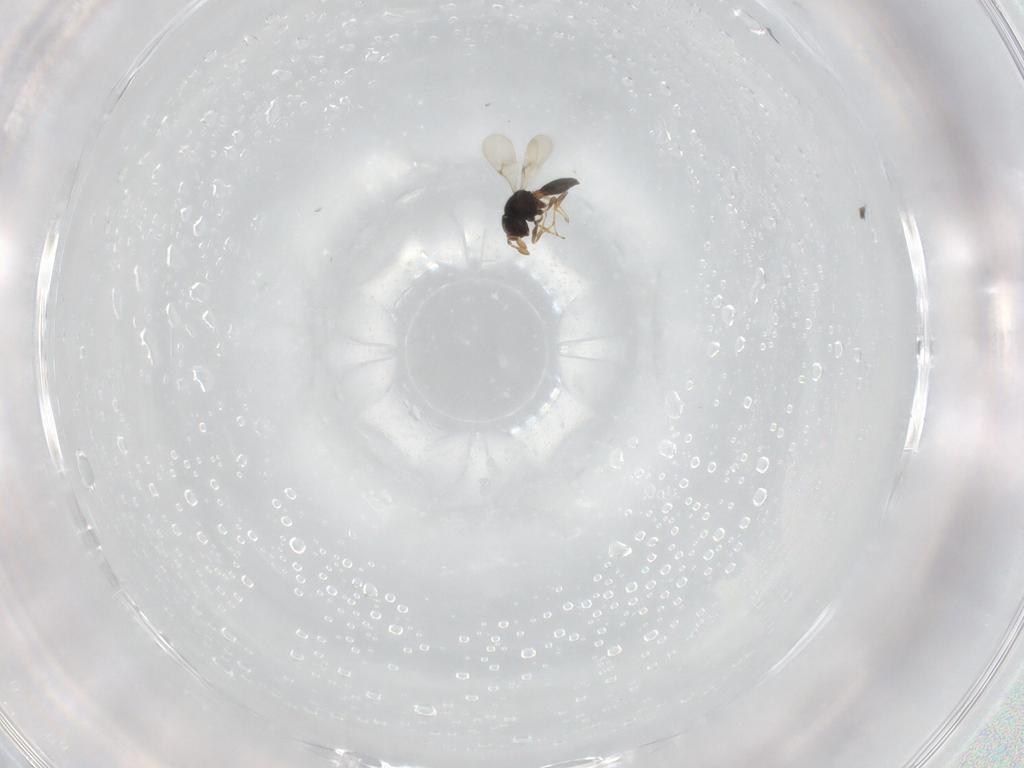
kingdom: Animalia
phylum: Arthropoda
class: Insecta
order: Hymenoptera
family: Scelionidae
